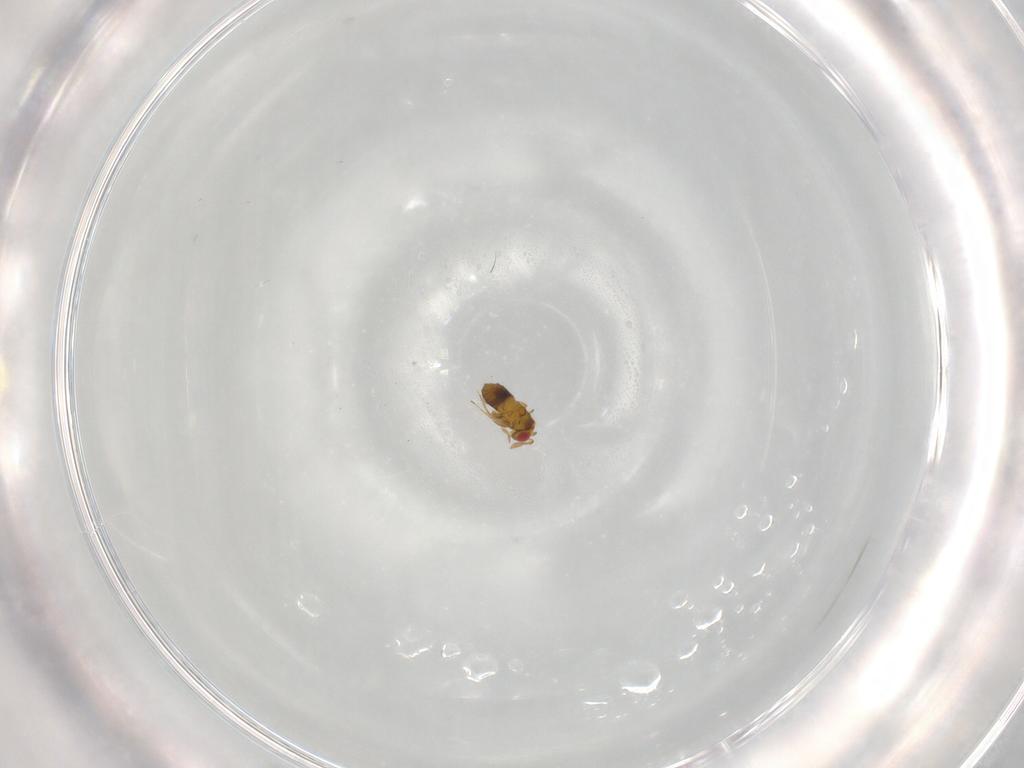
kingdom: Animalia
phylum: Arthropoda
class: Insecta
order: Hymenoptera
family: Trichogrammatidae
